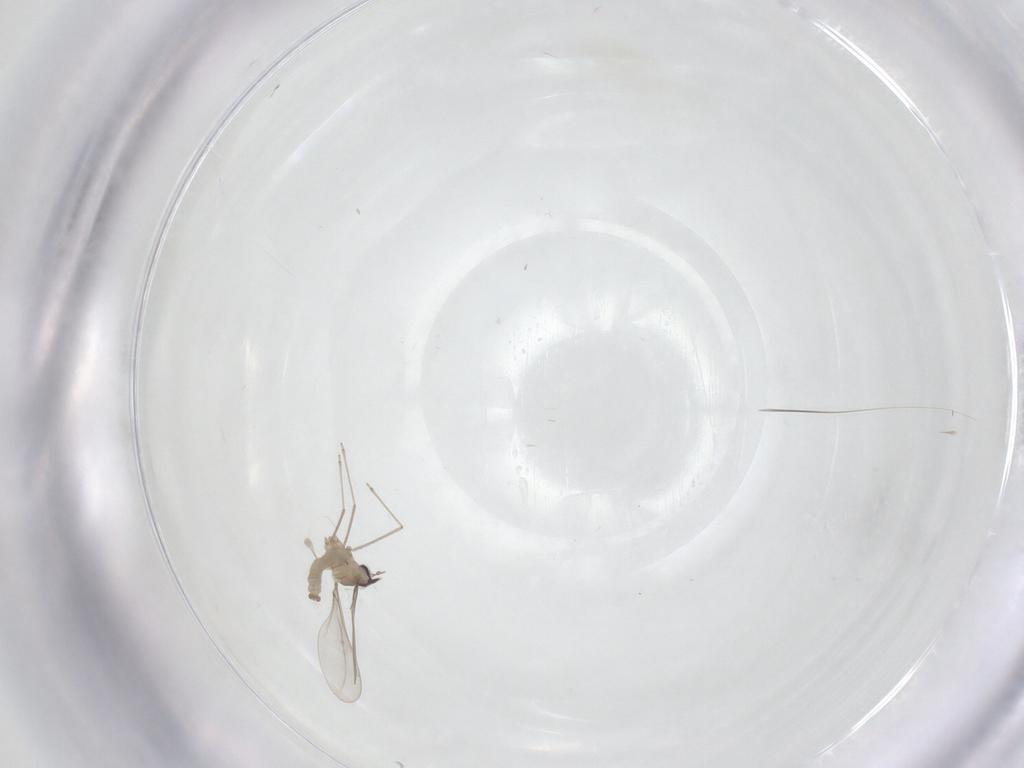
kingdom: Animalia
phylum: Arthropoda
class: Insecta
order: Diptera
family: Cecidomyiidae
